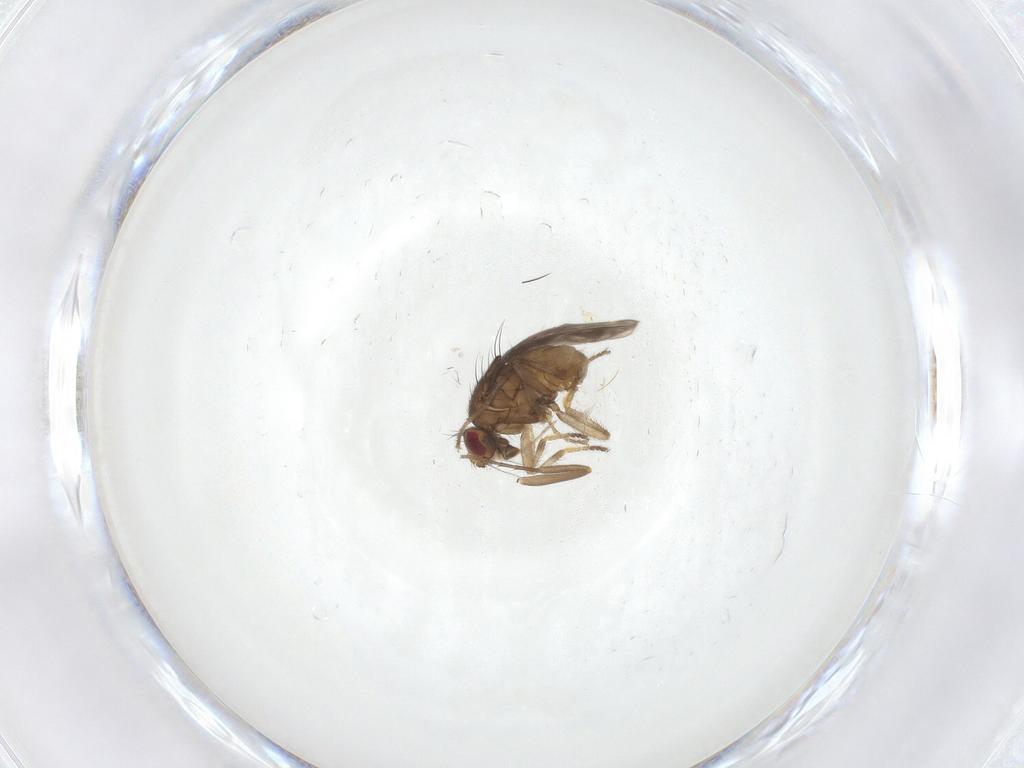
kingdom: Animalia
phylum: Arthropoda
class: Insecta
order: Diptera
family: Sphaeroceridae
